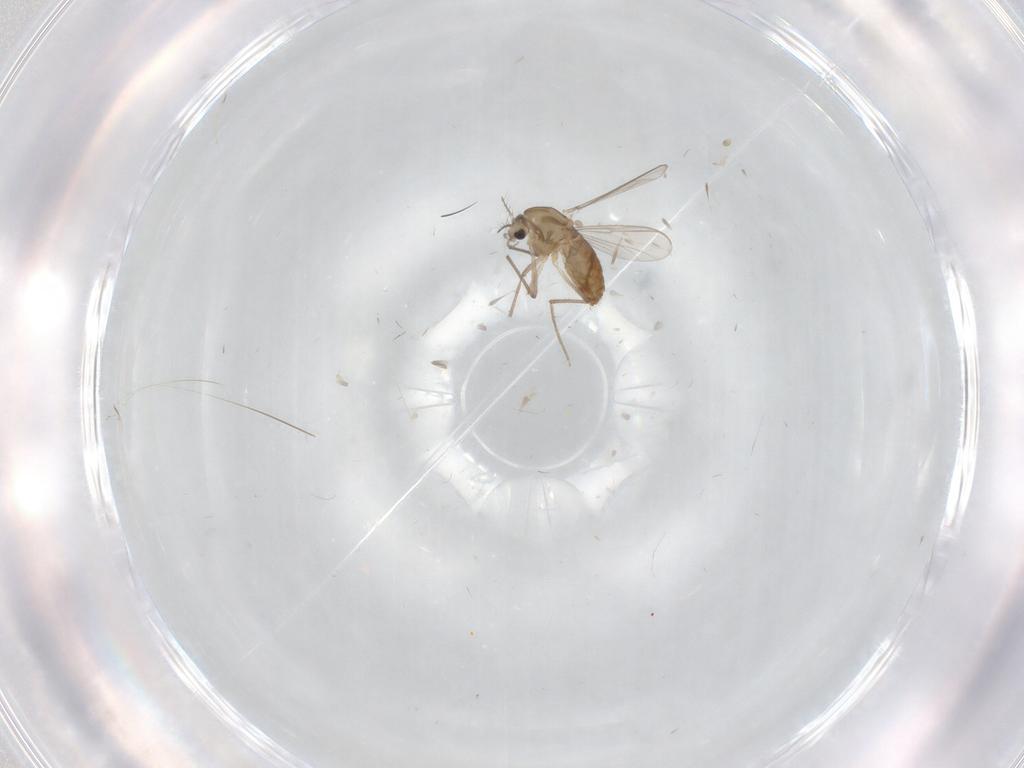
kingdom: Animalia
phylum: Arthropoda
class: Insecta
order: Diptera
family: Chironomidae
